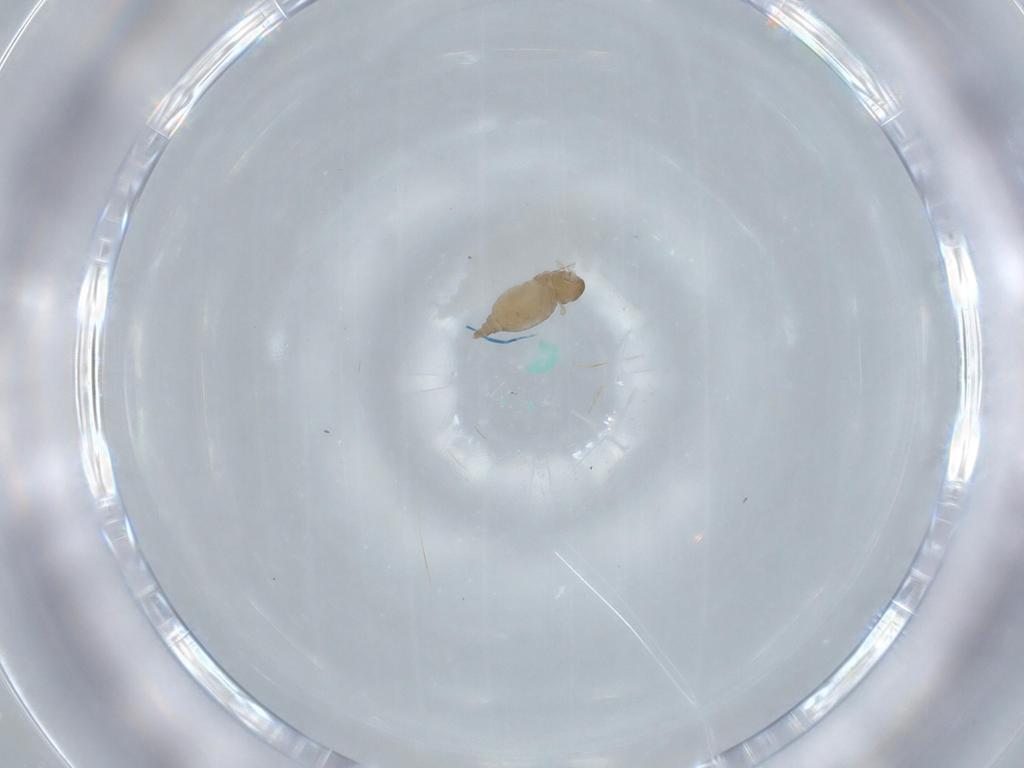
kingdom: Animalia
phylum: Arthropoda
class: Insecta
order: Diptera
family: Cecidomyiidae
